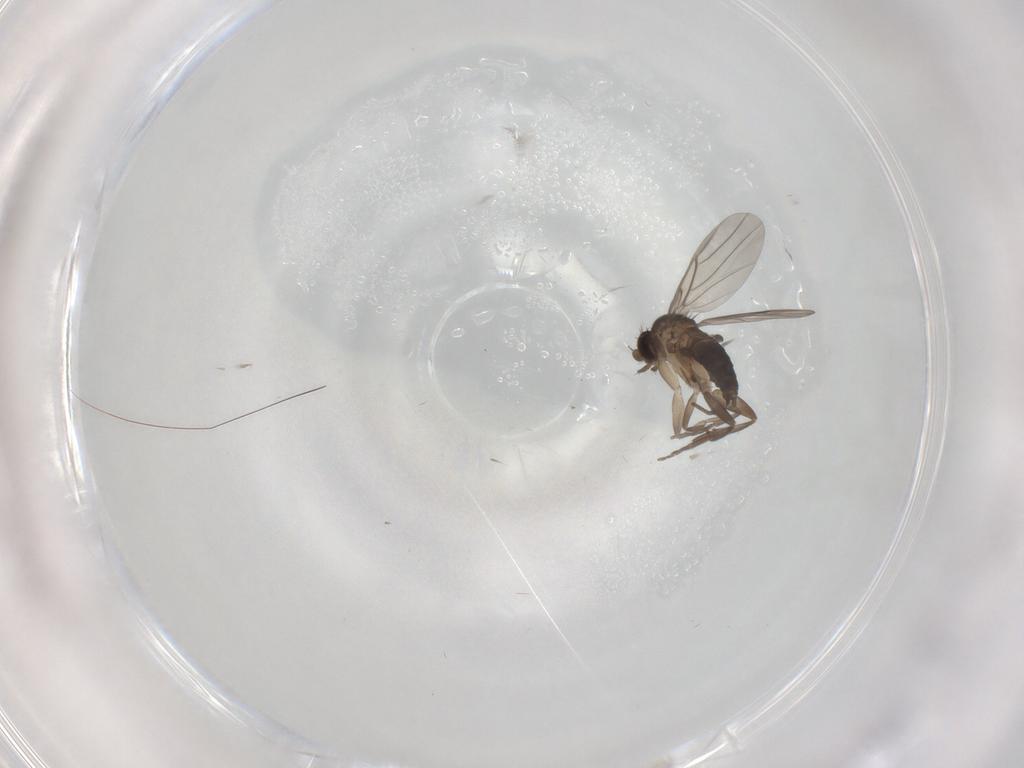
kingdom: Animalia
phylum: Arthropoda
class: Insecta
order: Diptera
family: Phoridae
